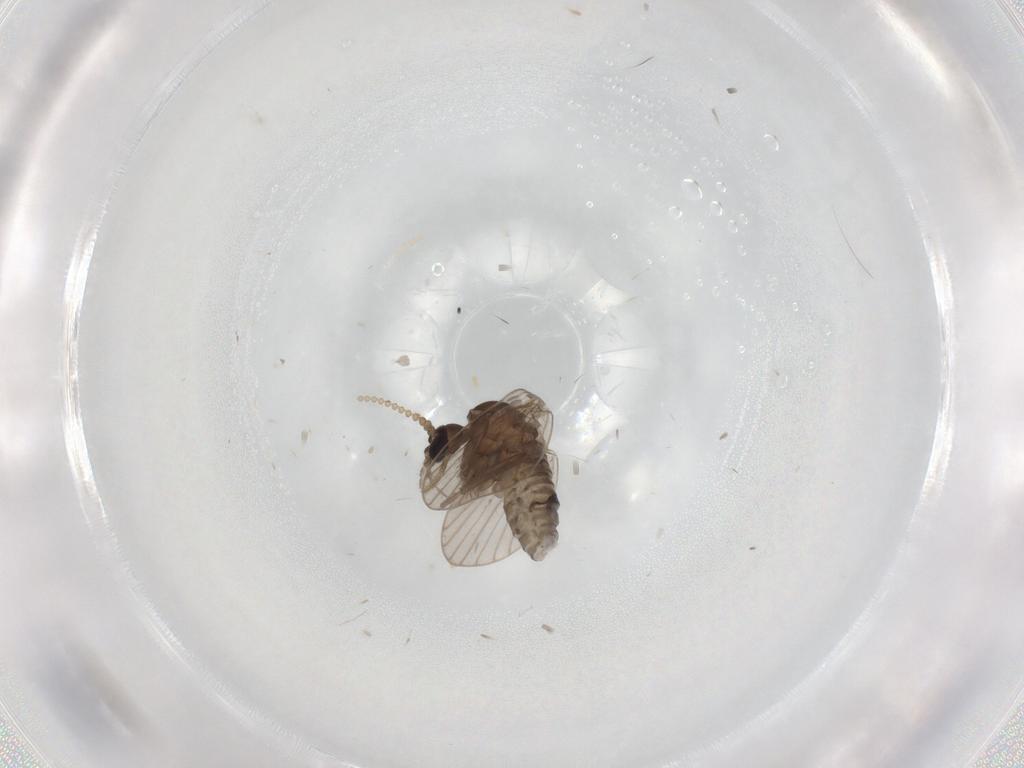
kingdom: Animalia
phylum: Arthropoda
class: Insecta
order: Diptera
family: Psychodidae
